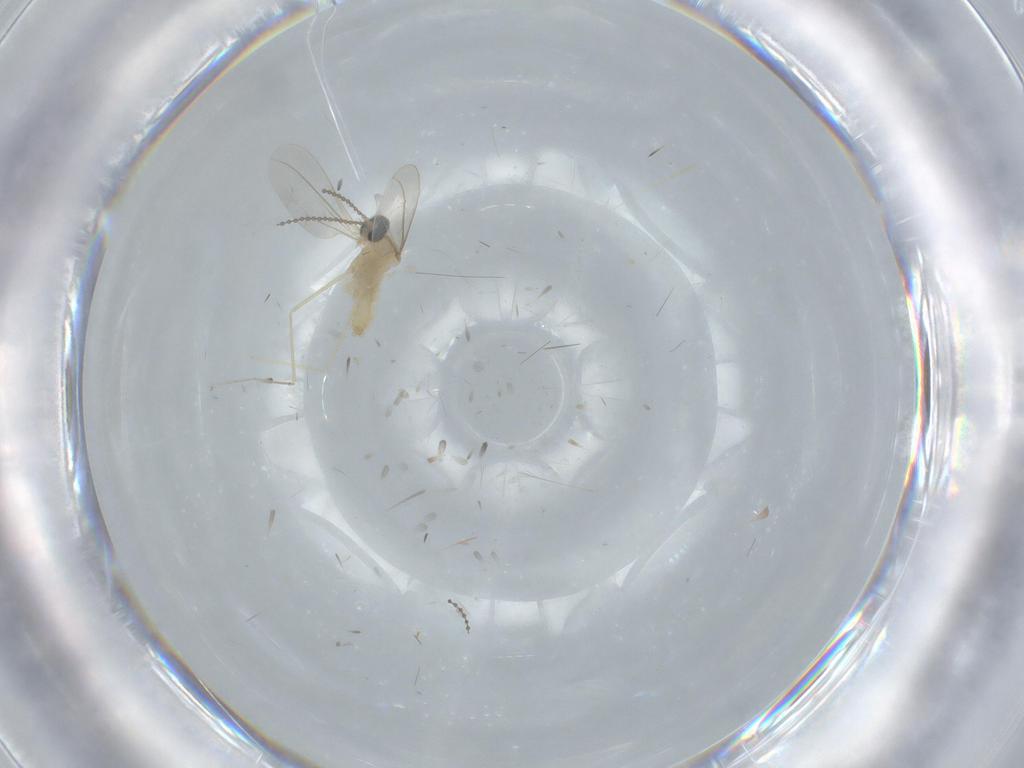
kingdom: Animalia
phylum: Arthropoda
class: Insecta
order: Diptera
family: Cecidomyiidae
